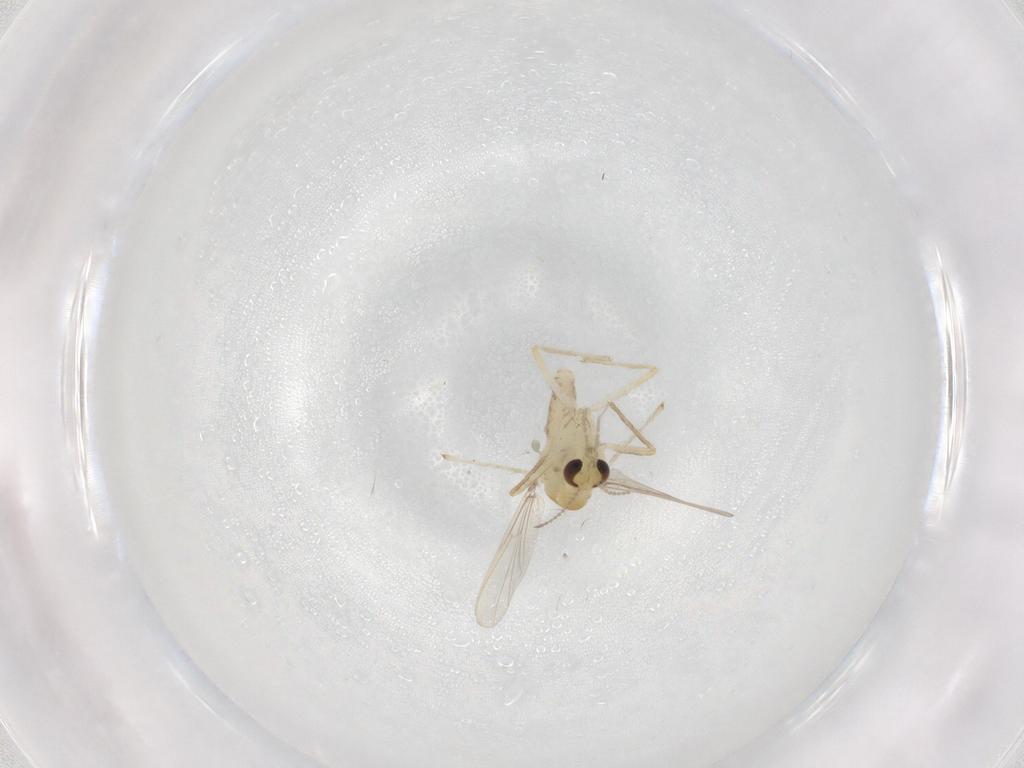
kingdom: Animalia
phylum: Arthropoda
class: Insecta
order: Diptera
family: Chironomidae
